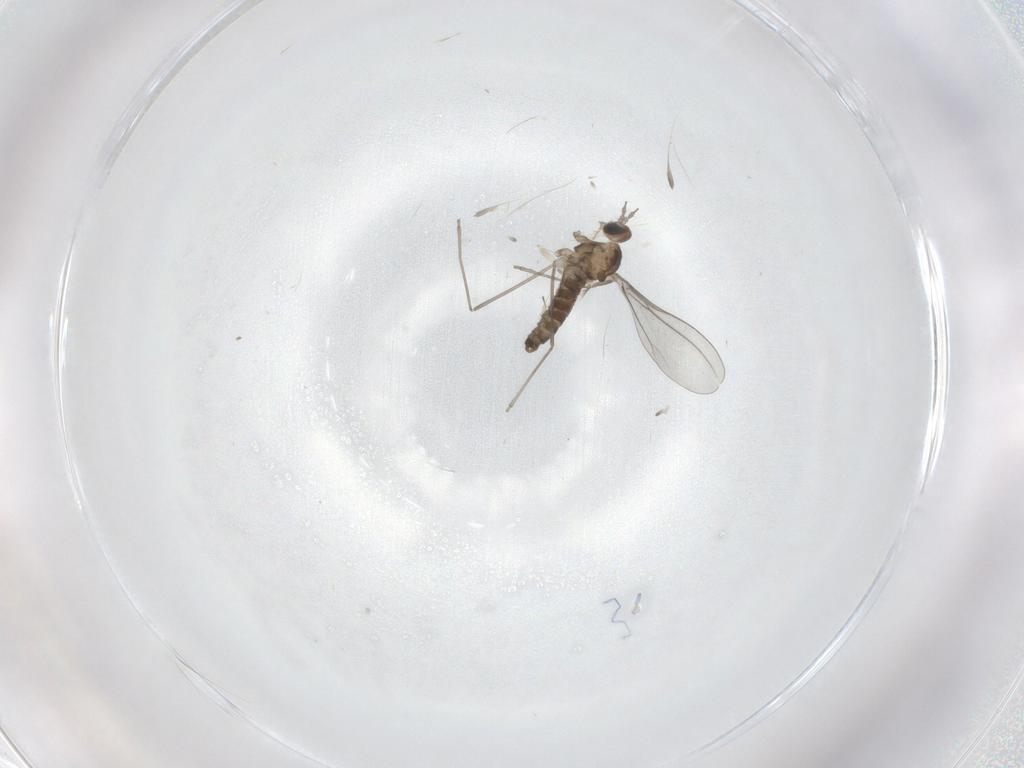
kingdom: Animalia
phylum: Arthropoda
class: Insecta
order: Diptera
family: Cecidomyiidae
